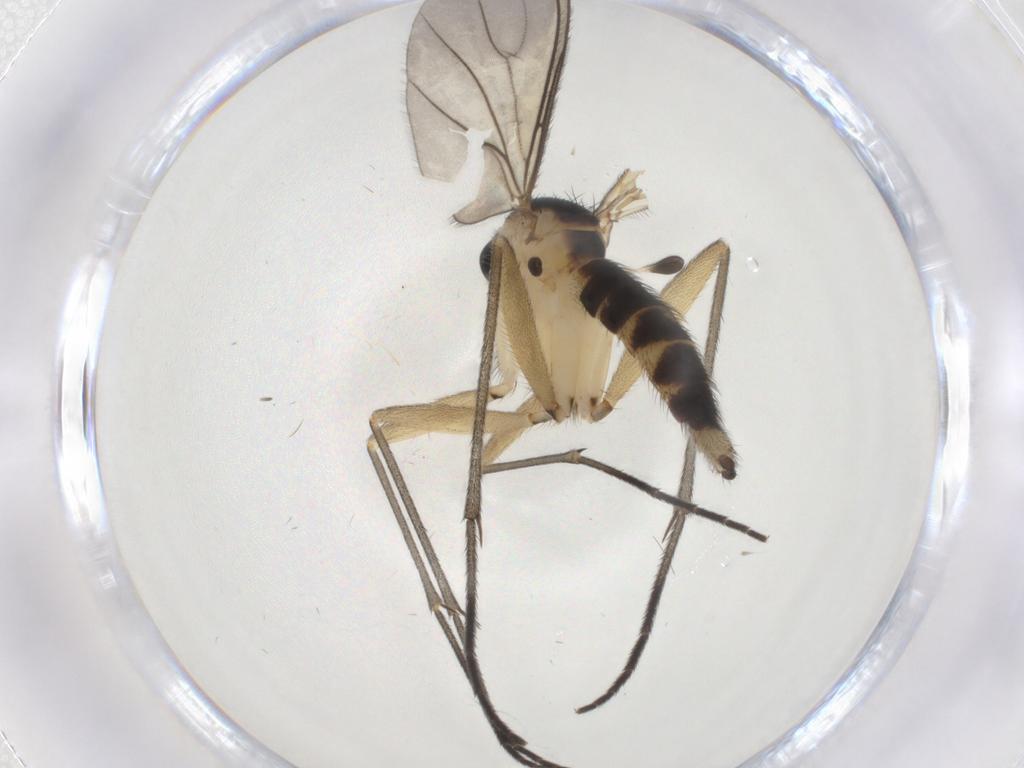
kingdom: Animalia
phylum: Arthropoda
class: Insecta
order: Diptera
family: Sciaridae
